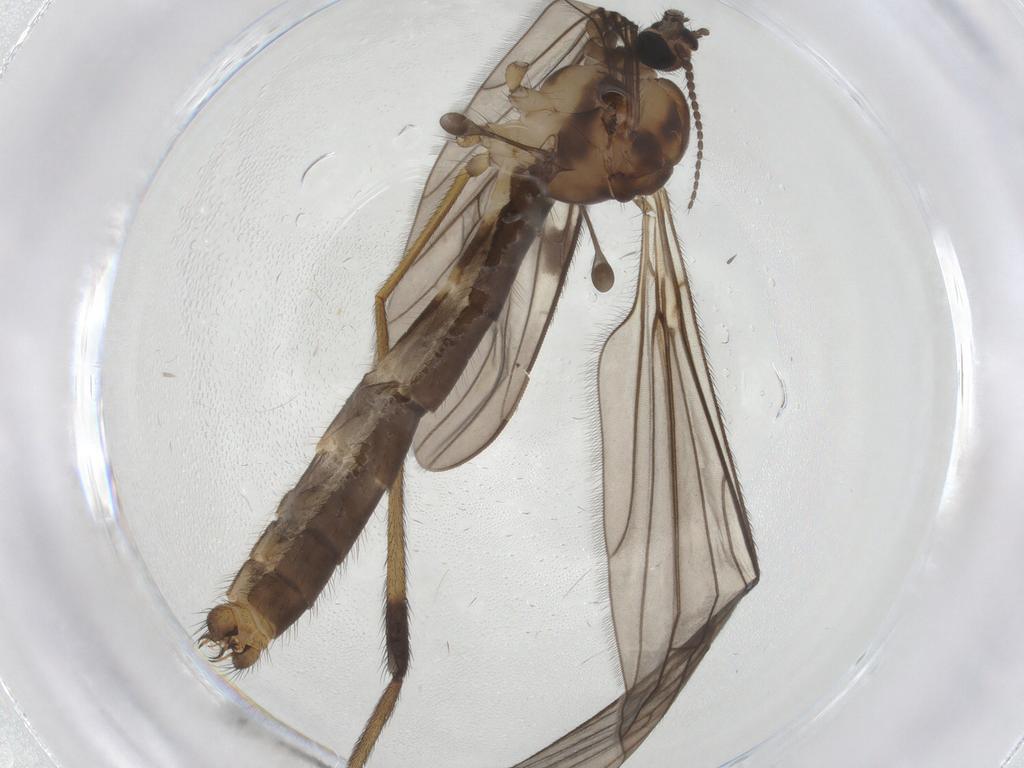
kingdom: Animalia
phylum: Arthropoda
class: Insecta
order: Diptera
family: Limoniidae
